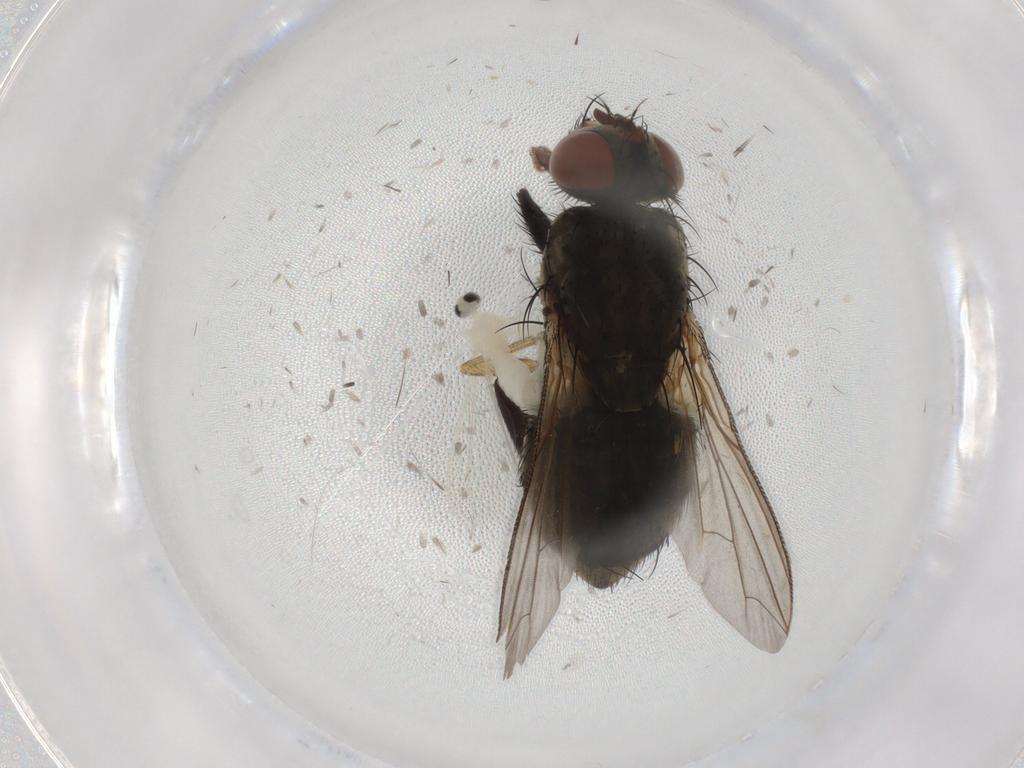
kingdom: Animalia
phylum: Arthropoda
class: Insecta
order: Diptera
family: Sarcophagidae
